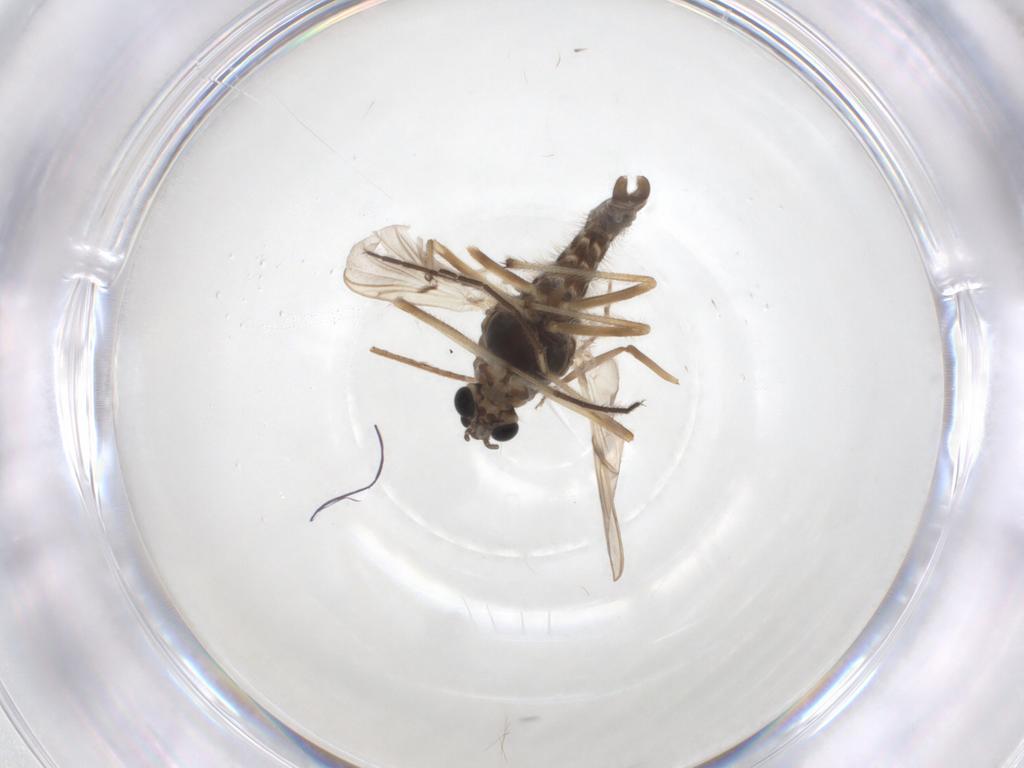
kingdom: Animalia
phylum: Arthropoda
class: Insecta
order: Diptera
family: Chironomidae
